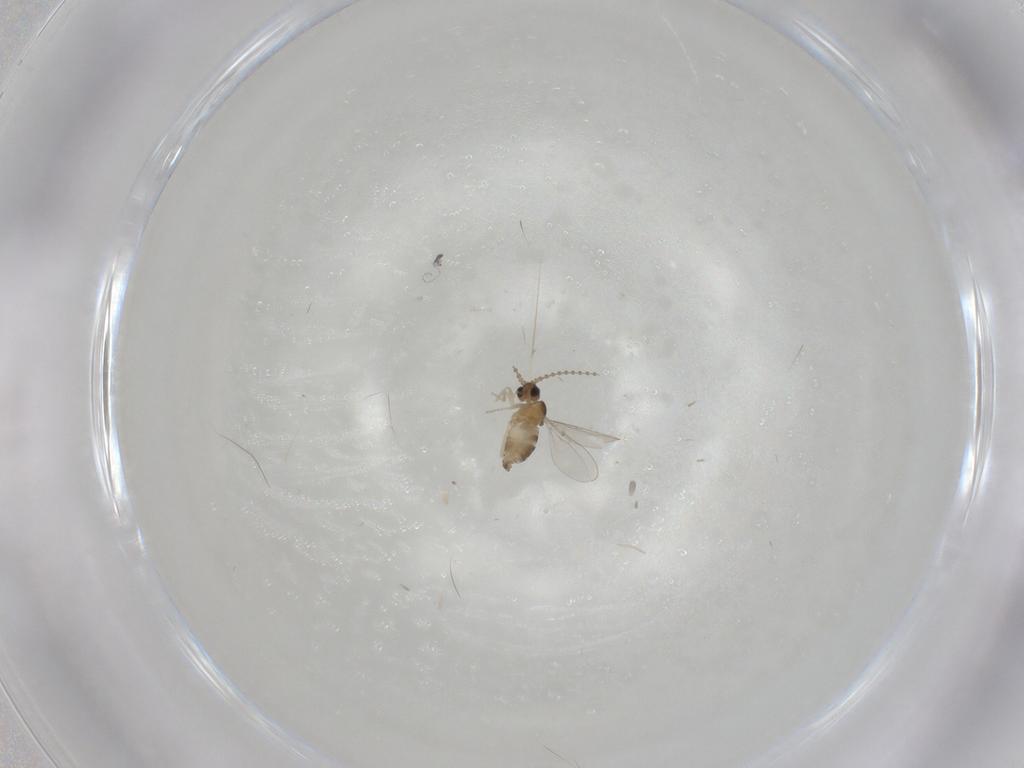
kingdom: Animalia
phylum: Arthropoda
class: Insecta
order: Diptera
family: Cecidomyiidae
